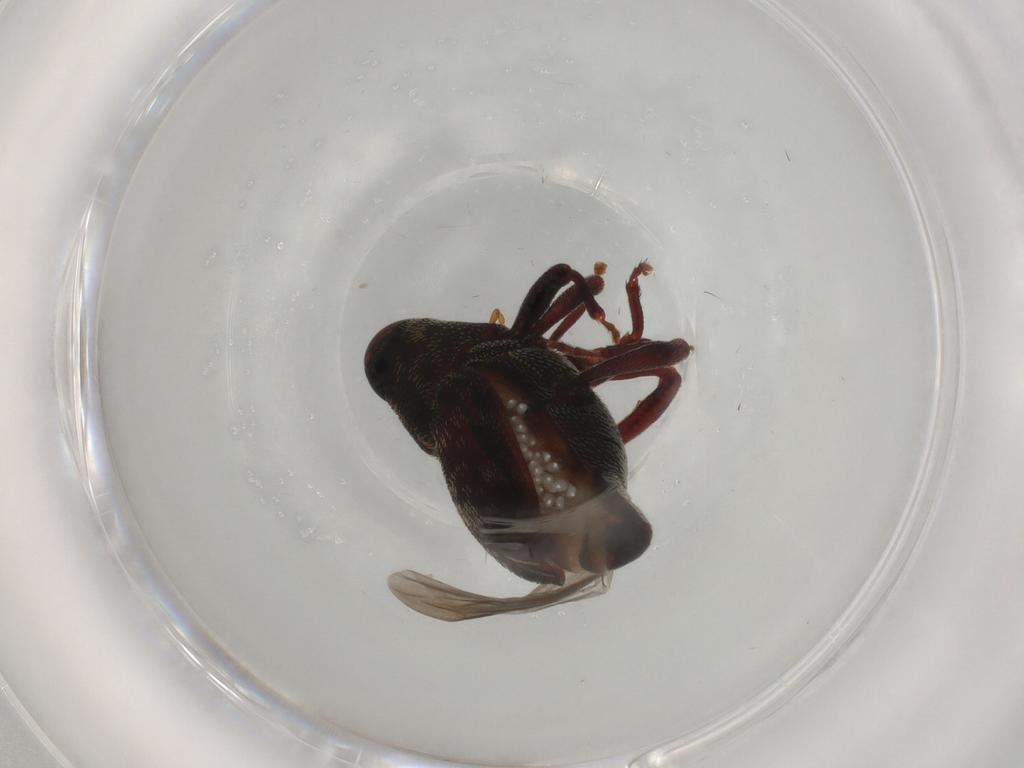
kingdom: Animalia
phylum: Arthropoda
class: Insecta
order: Coleoptera
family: Curculionidae
